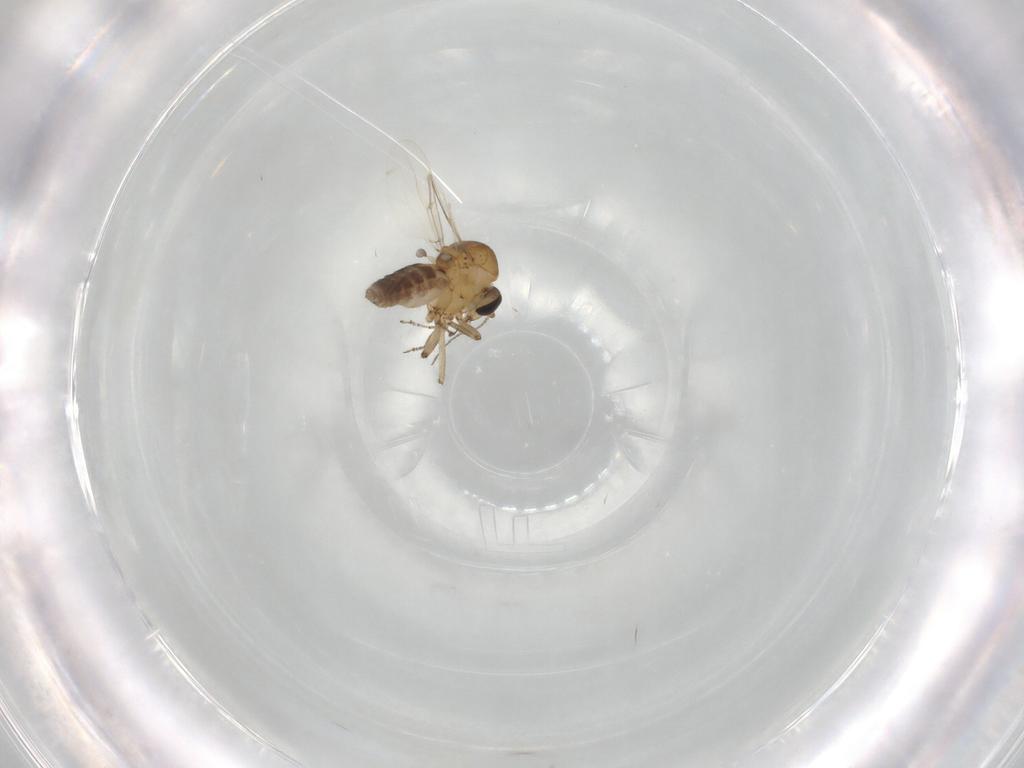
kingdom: Animalia
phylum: Arthropoda
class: Insecta
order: Diptera
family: Ceratopogonidae
